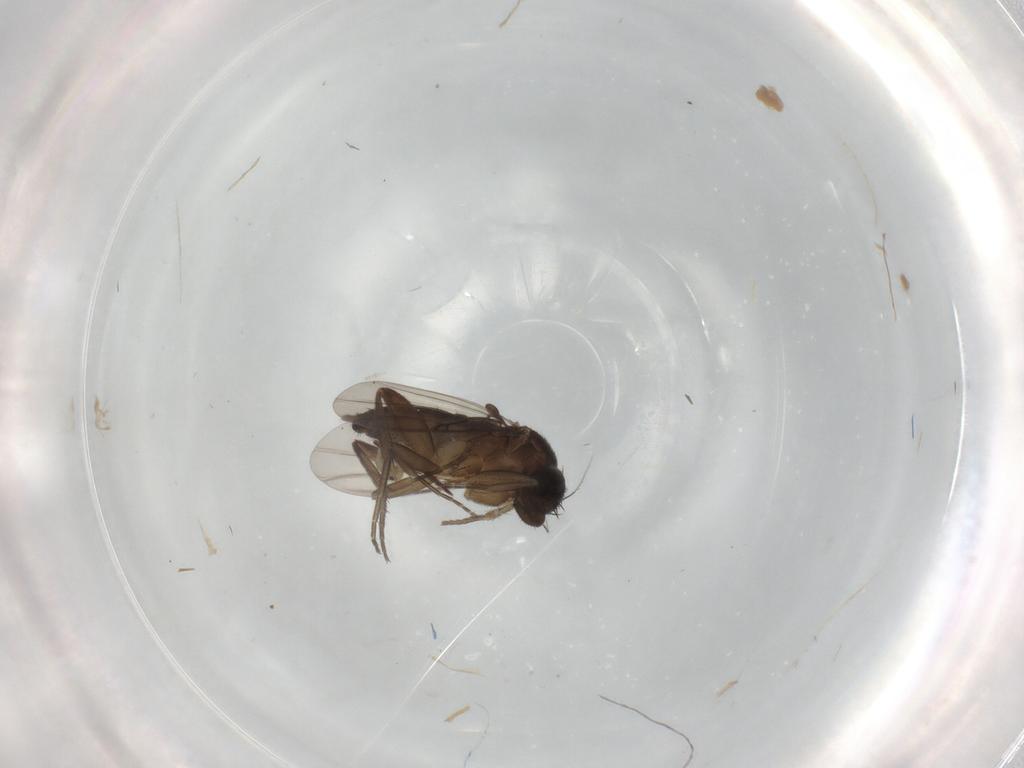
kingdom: Animalia
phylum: Arthropoda
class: Insecta
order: Diptera
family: Phoridae
